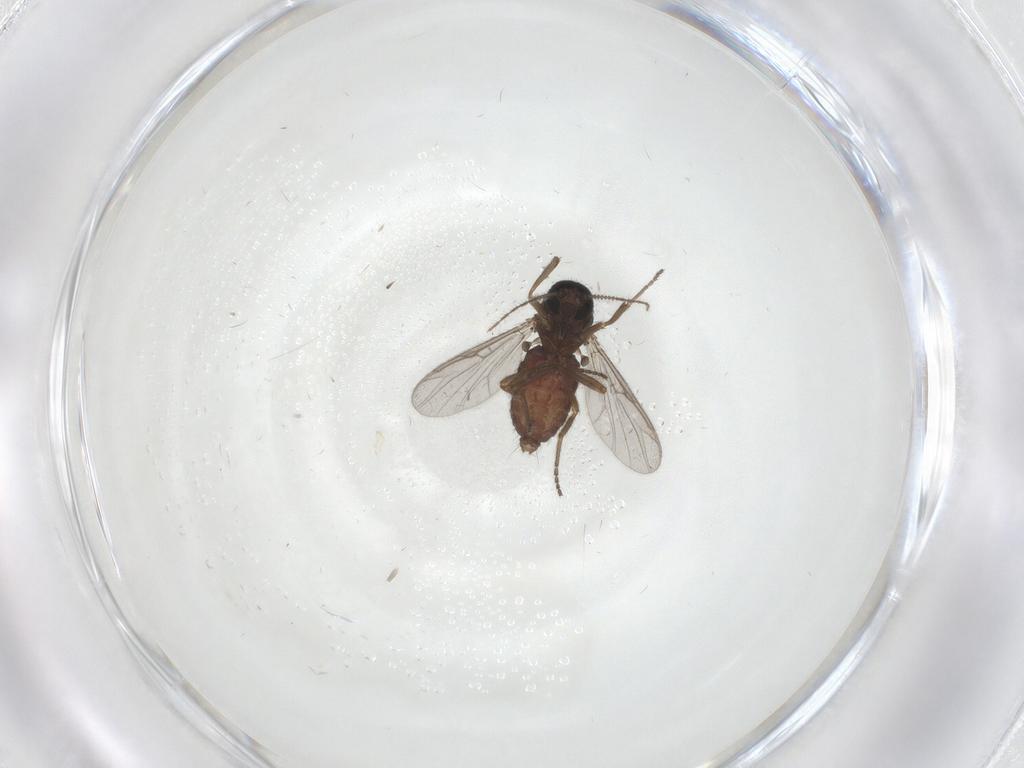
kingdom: Animalia
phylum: Arthropoda
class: Insecta
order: Diptera
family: Ceratopogonidae
